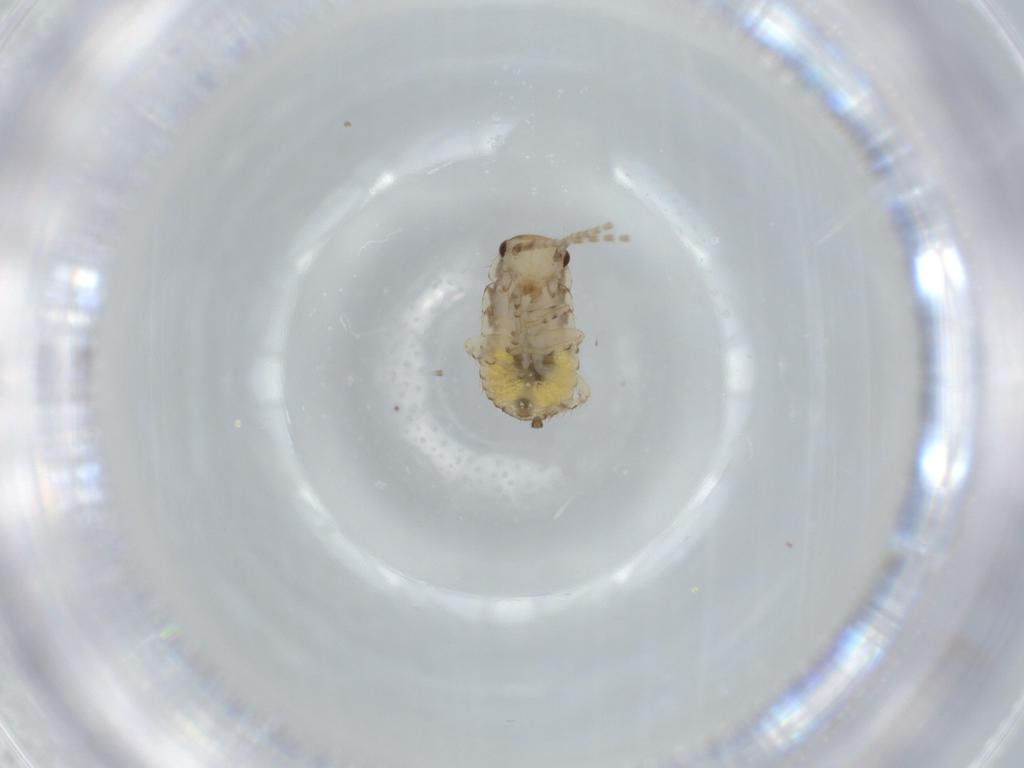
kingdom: Animalia
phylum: Arthropoda
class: Insecta
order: Blattodea
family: Ectobiidae
